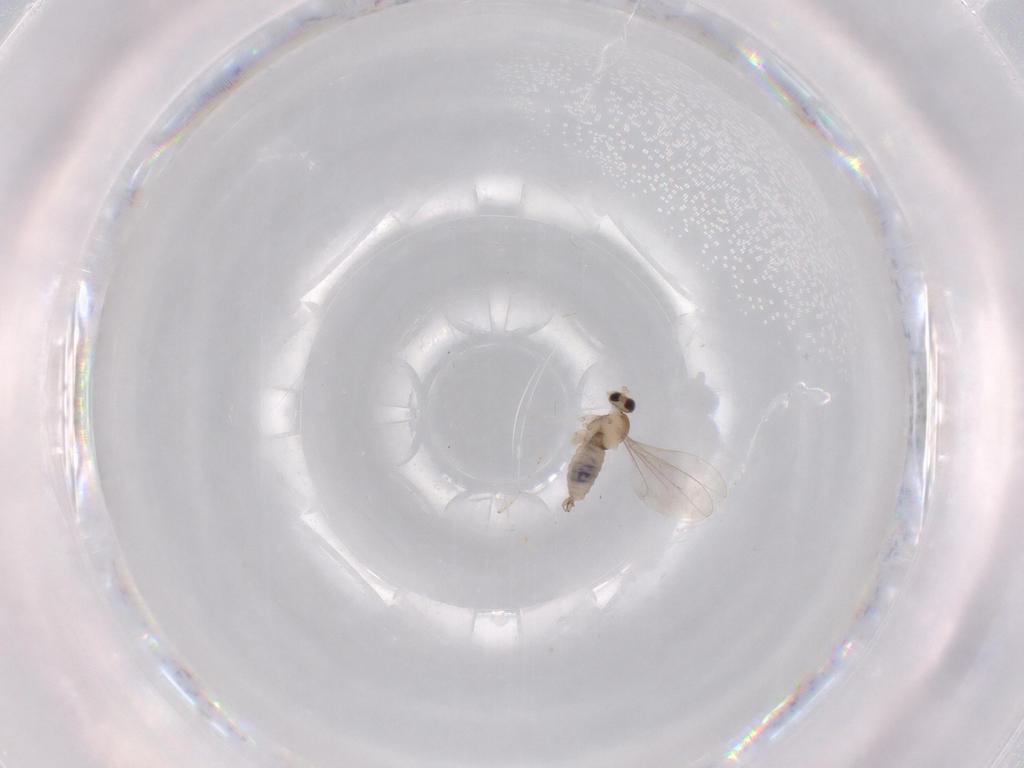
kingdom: Animalia
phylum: Arthropoda
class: Insecta
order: Diptera
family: Cecidomyiidae
